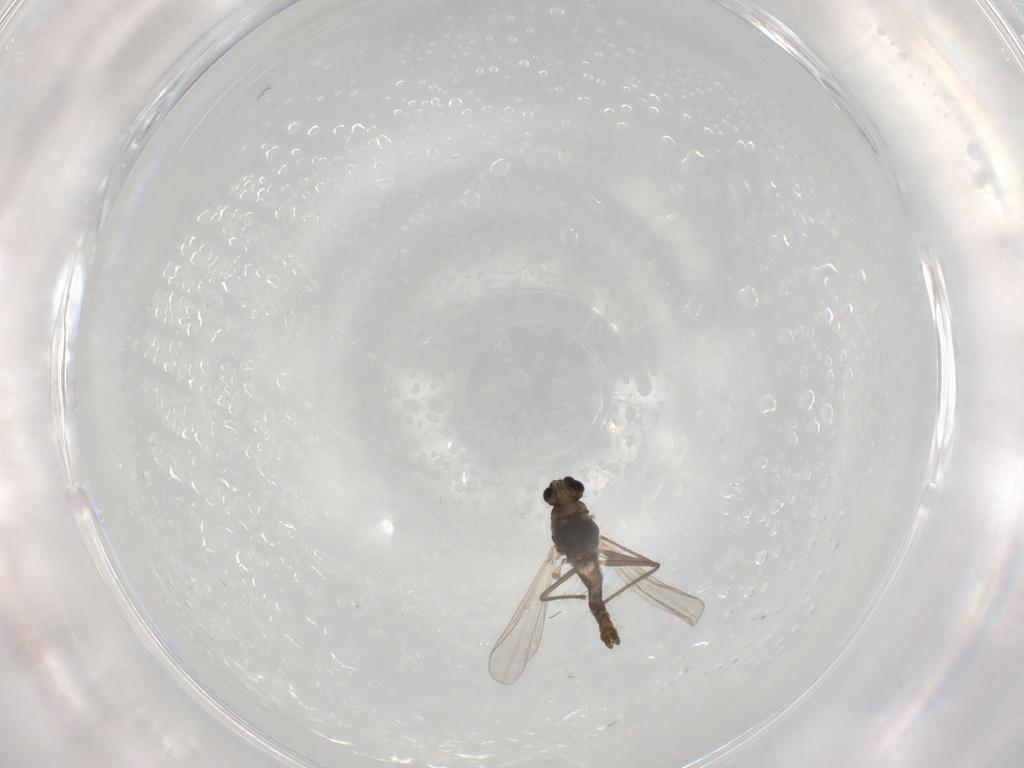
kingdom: Animalia
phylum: Arthropoda
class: Insecta
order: Diptera
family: Chironomidae
